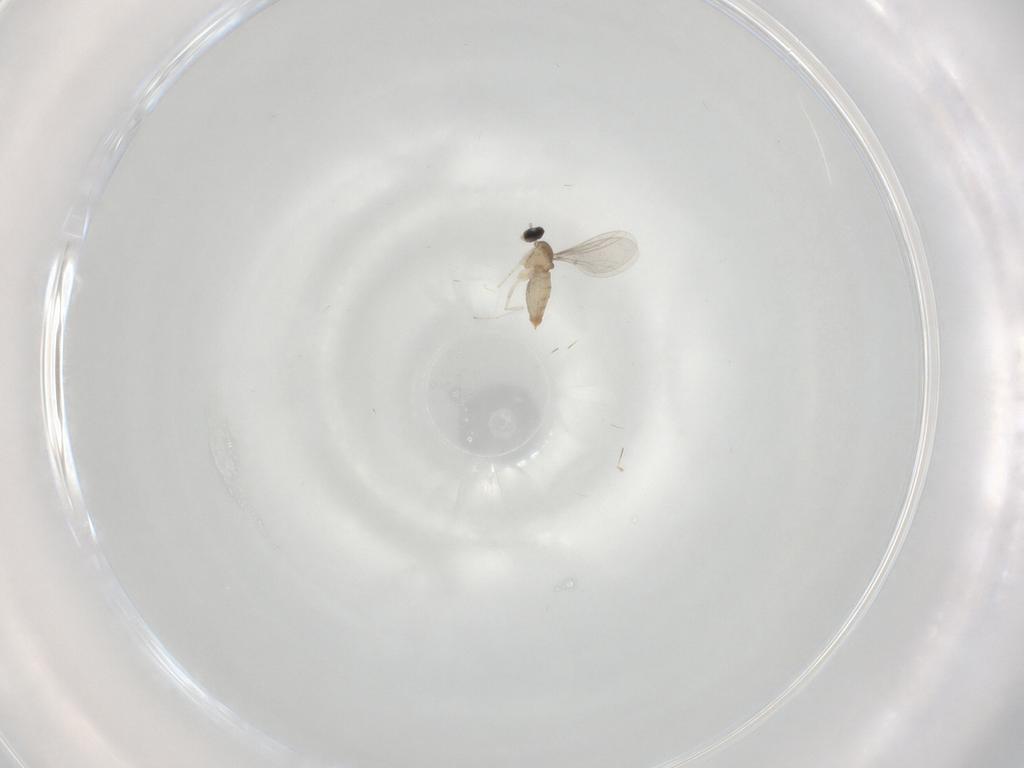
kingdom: Animalia
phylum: Arthropoda
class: Insecta
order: Diptera
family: Cecidomyiidae
